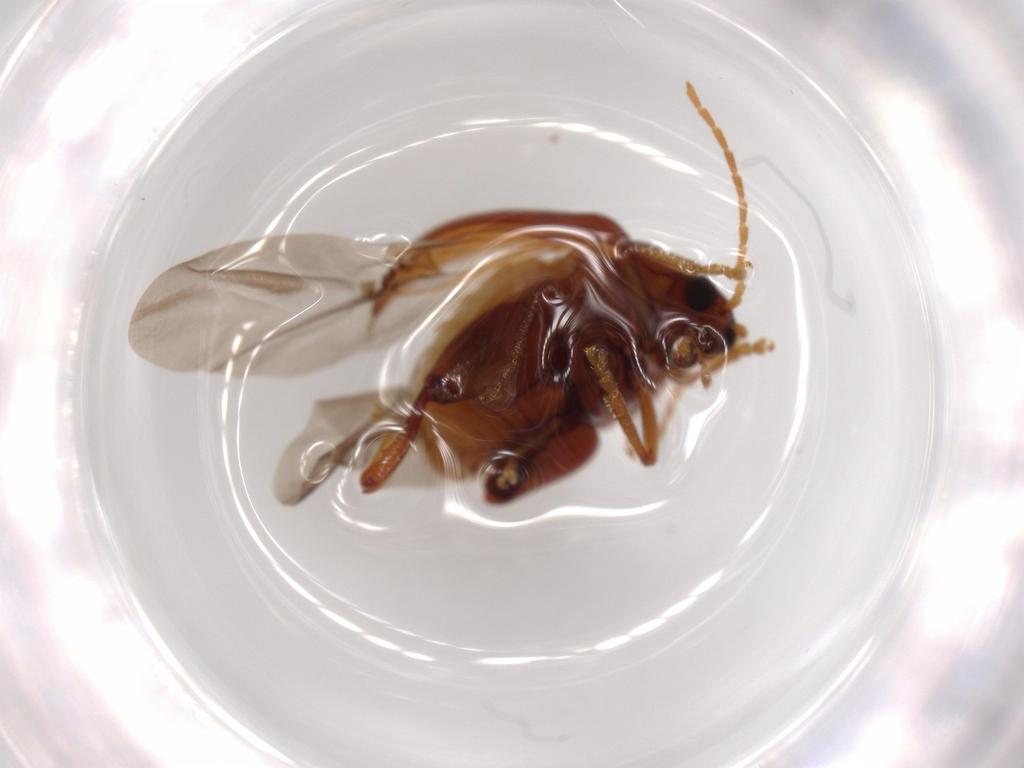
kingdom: Animalia
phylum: Arthropoda
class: Insecta
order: Coleoptera
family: Chrysomelidae
